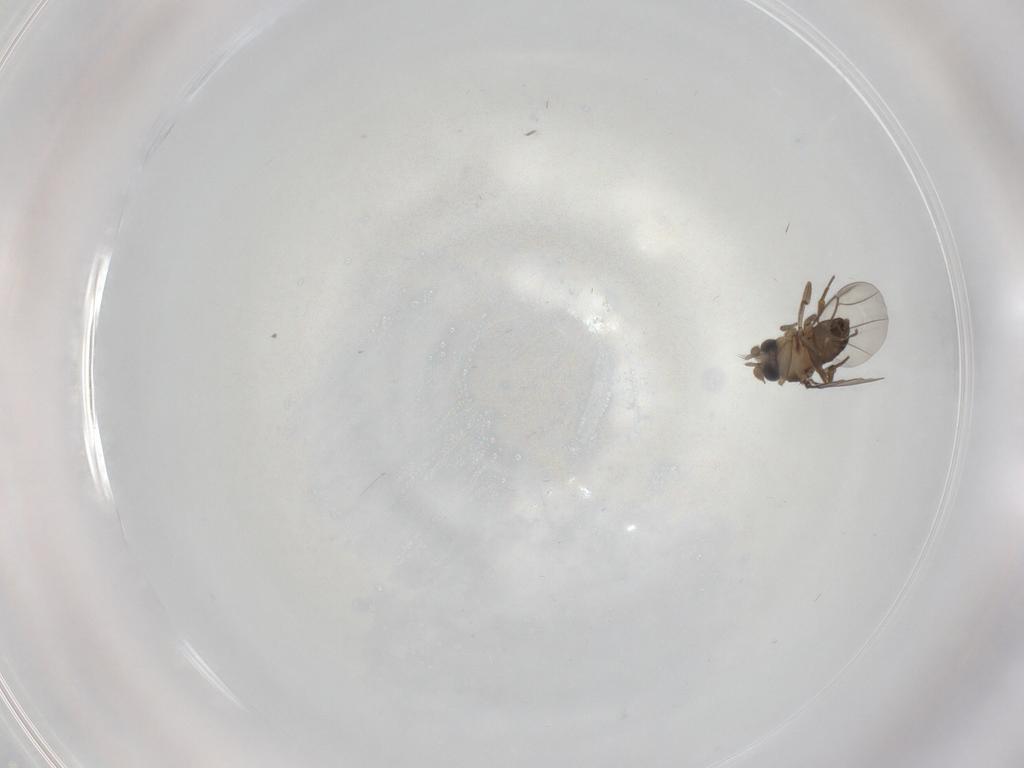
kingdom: Animalia
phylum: Arthropoda
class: Insecta
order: Diptera
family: Phoridae
